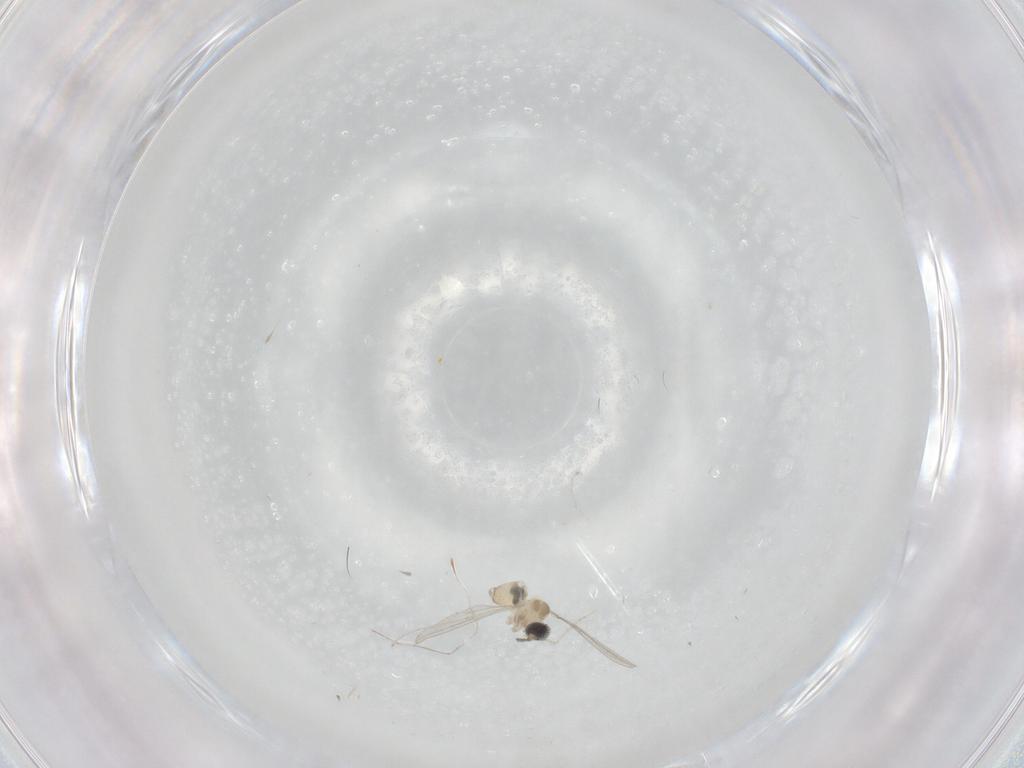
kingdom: Animalia
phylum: Arthropoda
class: Insecta
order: Diptera
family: Cecidomyiidae
